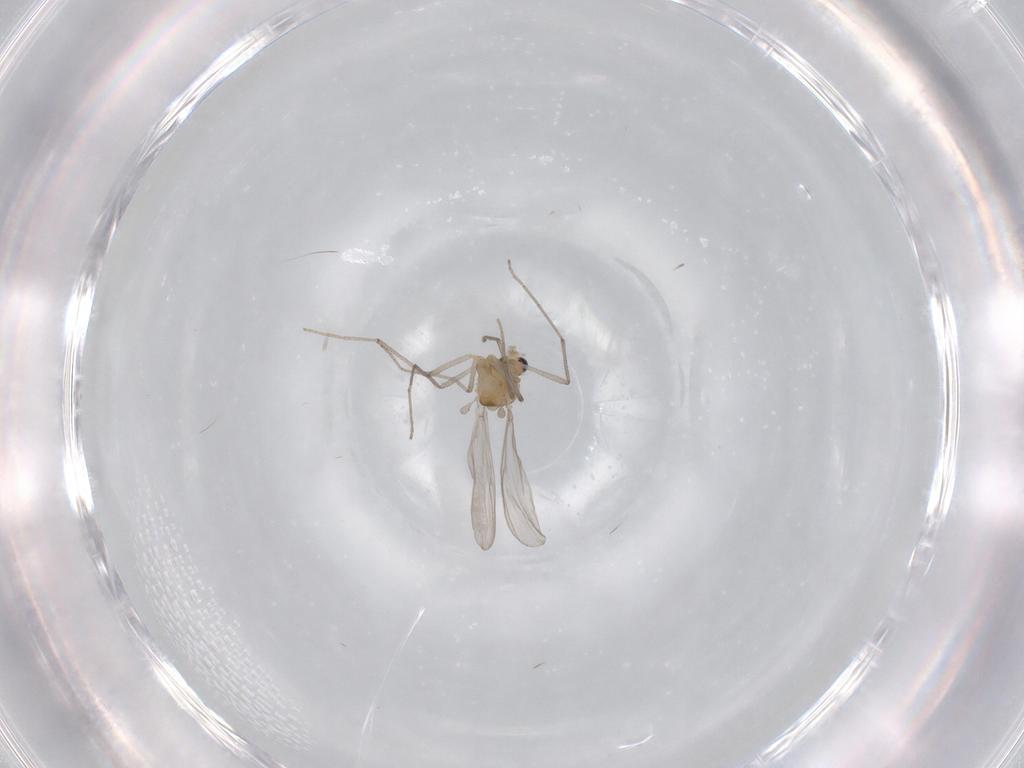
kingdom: Animalia
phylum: Arthropoda
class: Insecta
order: Diptera
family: Chironomidae
